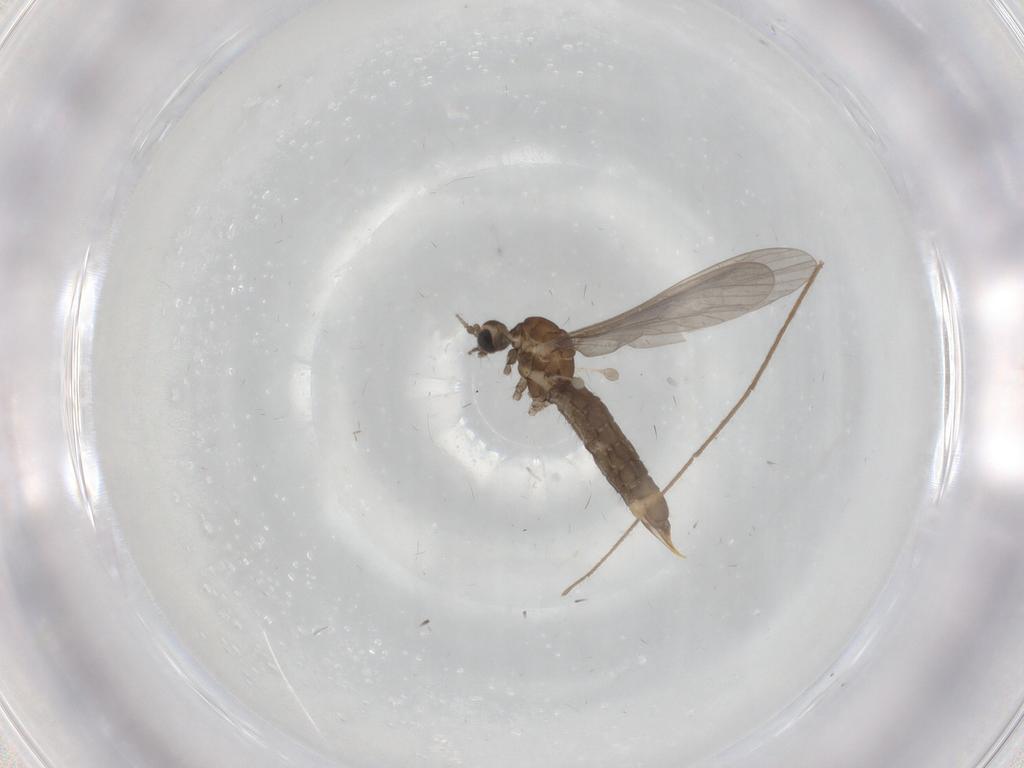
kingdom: Animalia
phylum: Arthropoda
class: Insecta
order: Diptera
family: Limoniidae
